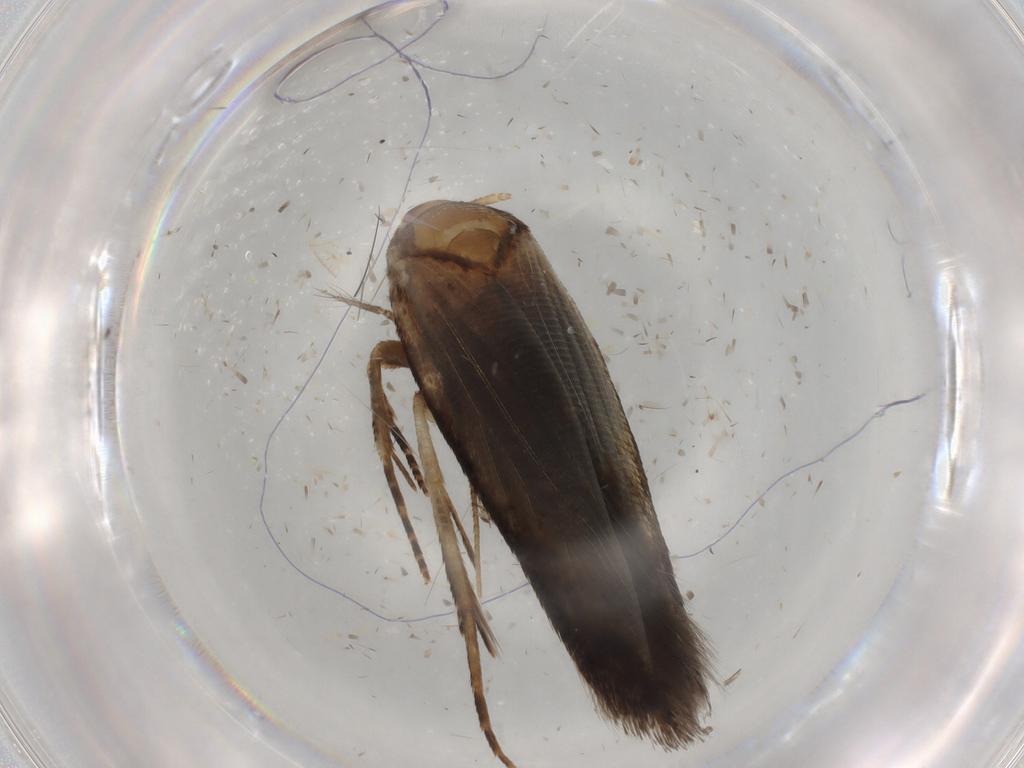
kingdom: Animalia
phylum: Arthropoda
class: Insecta
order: Lepidoptera
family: Cosmopterigidae
